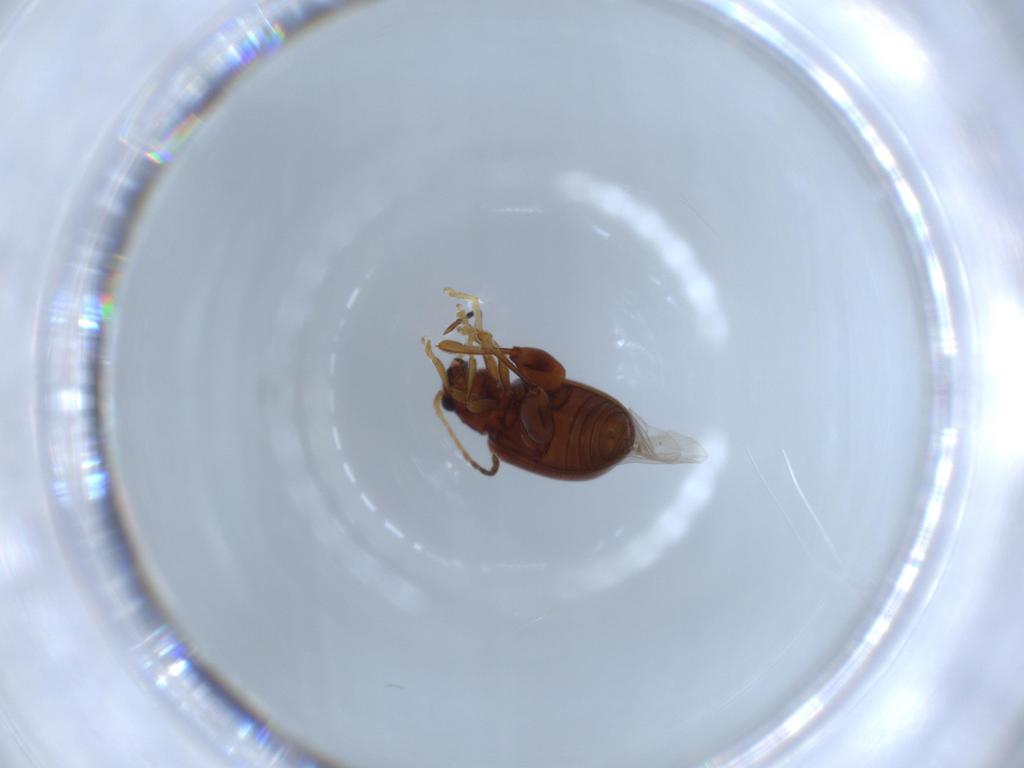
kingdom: Animalia
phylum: Arthropoda
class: Insecta
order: Coleoptera
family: Chrysomelidae
